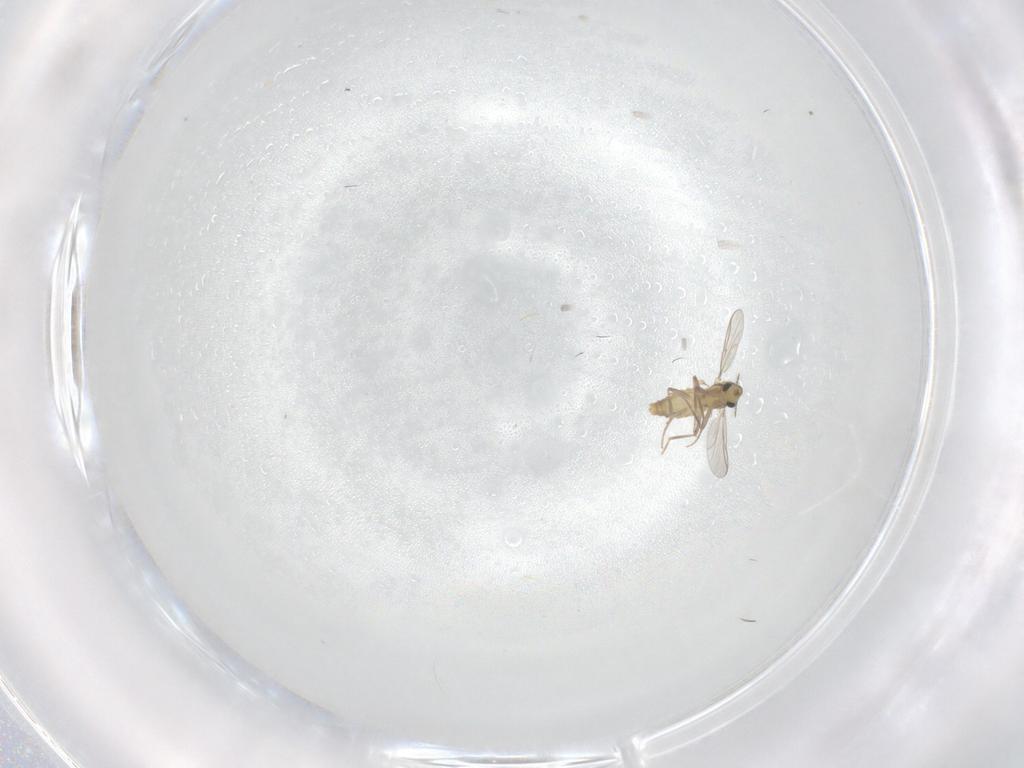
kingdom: Animalia
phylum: Arthropoda
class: Insecta
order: Diptera
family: Chironomidae
